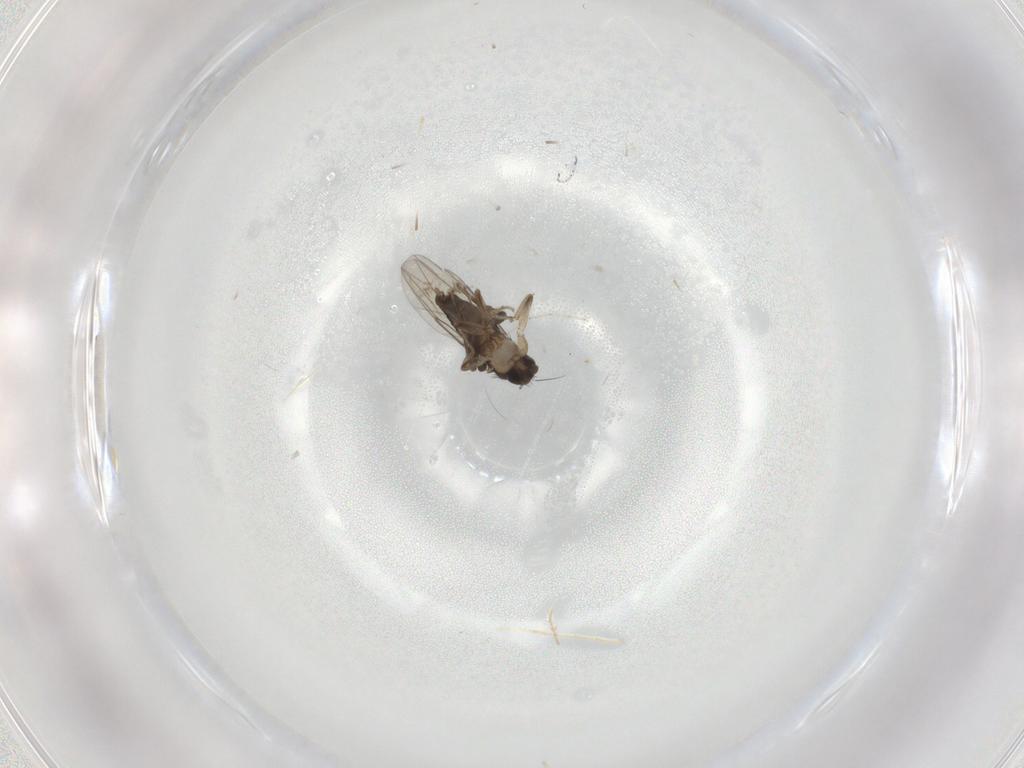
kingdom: Animalia
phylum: Arthropoda
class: Insecta
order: Diptera
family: Phoridae
